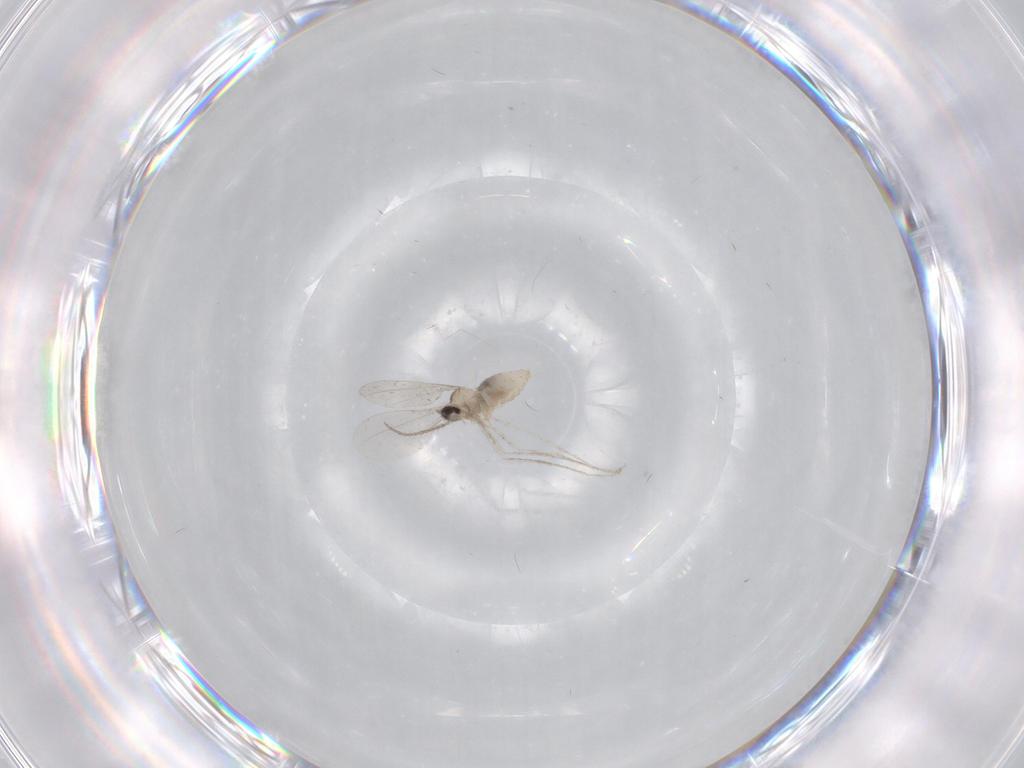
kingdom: Animalia
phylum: Arthropoda
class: Insecta
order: Diptera
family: Cecidomyiidae
